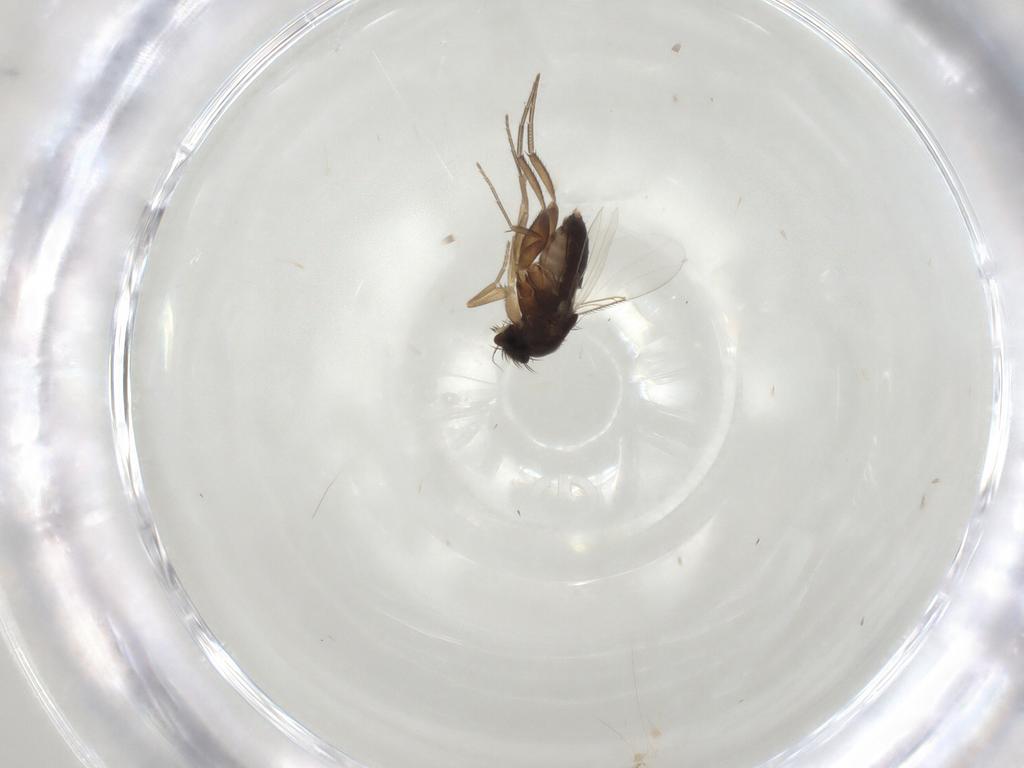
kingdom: Animalia
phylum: Arthropoda
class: Insecta
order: Diptera
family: Phoridae
